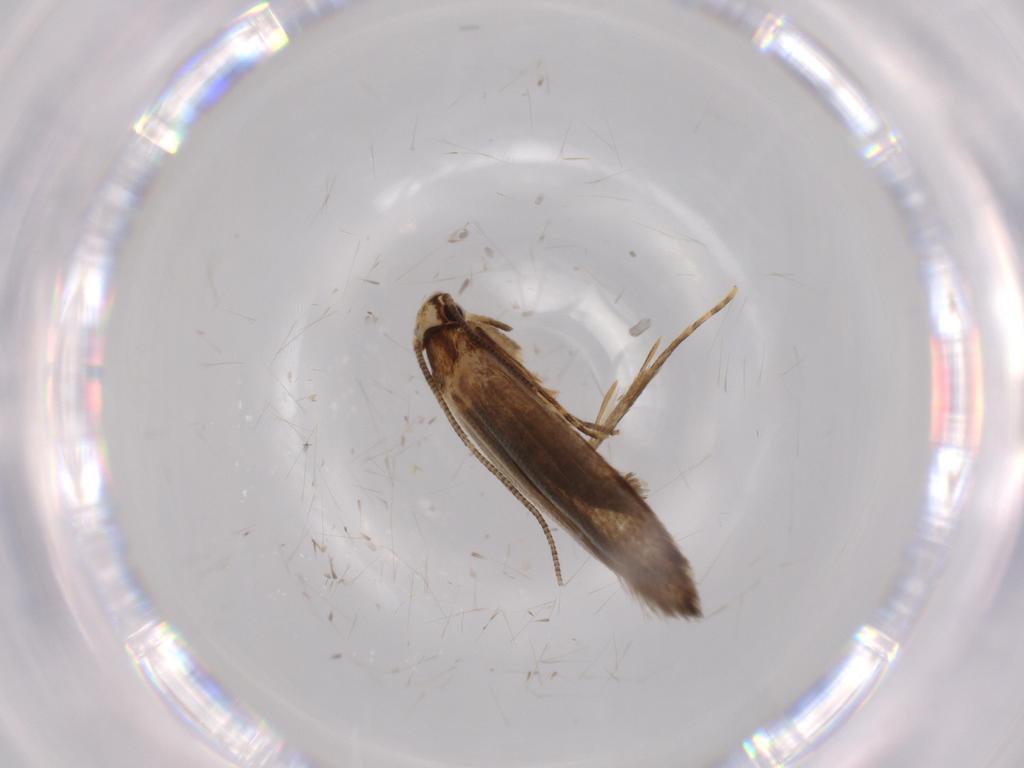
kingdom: Animalia
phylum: Arthropoda
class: Insecta
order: Lepidoptera
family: Tineidae
